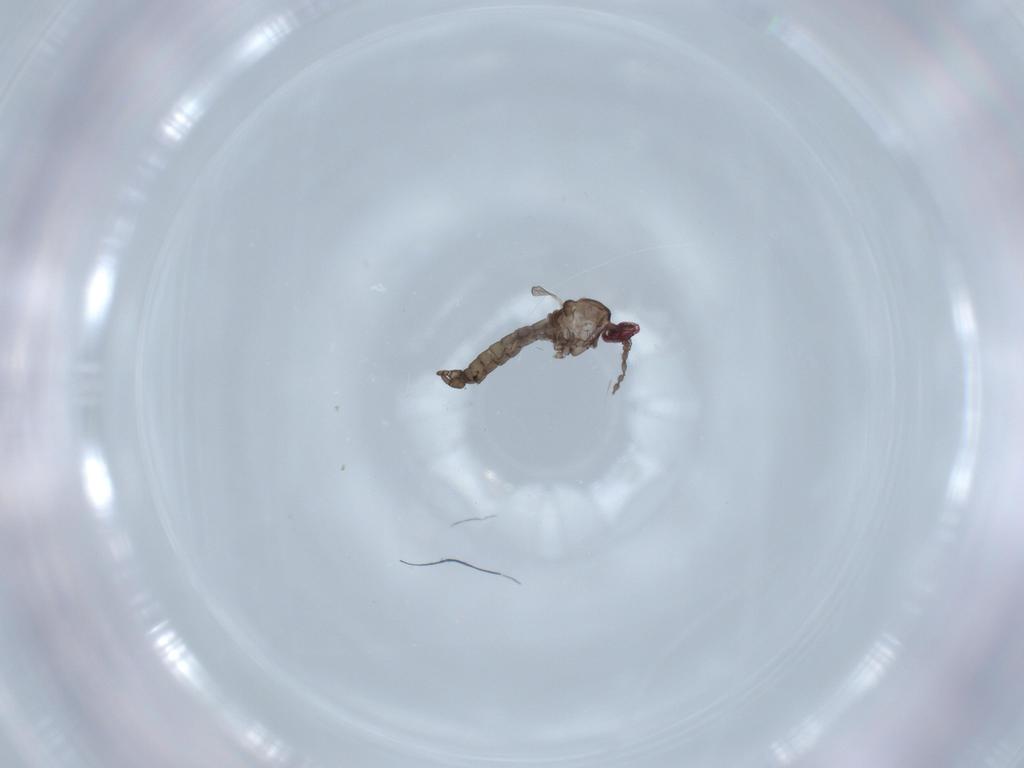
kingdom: Animalia
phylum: Arthropoda
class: Insecta
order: Diptera
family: Cecidomyiidae
